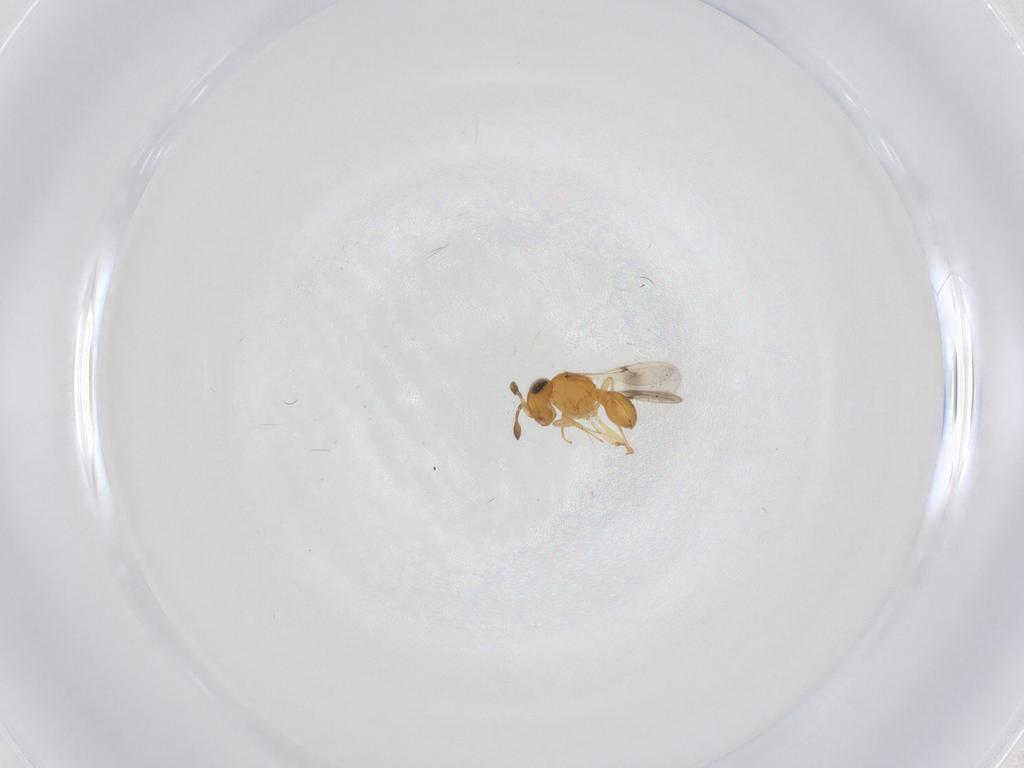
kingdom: Animalia
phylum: Arthropoda
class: Insecta
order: Hymenoptera
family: Scelionidae
